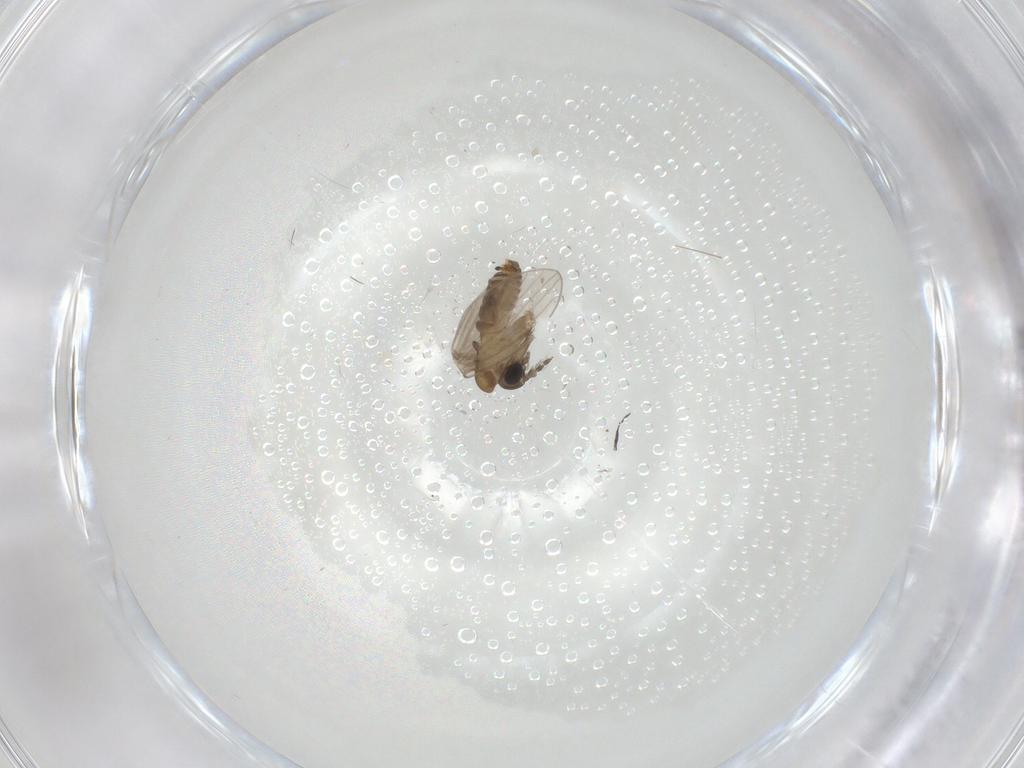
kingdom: Animalia
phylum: Arthropoda
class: Insecta
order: Diptera
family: Psychodidae
